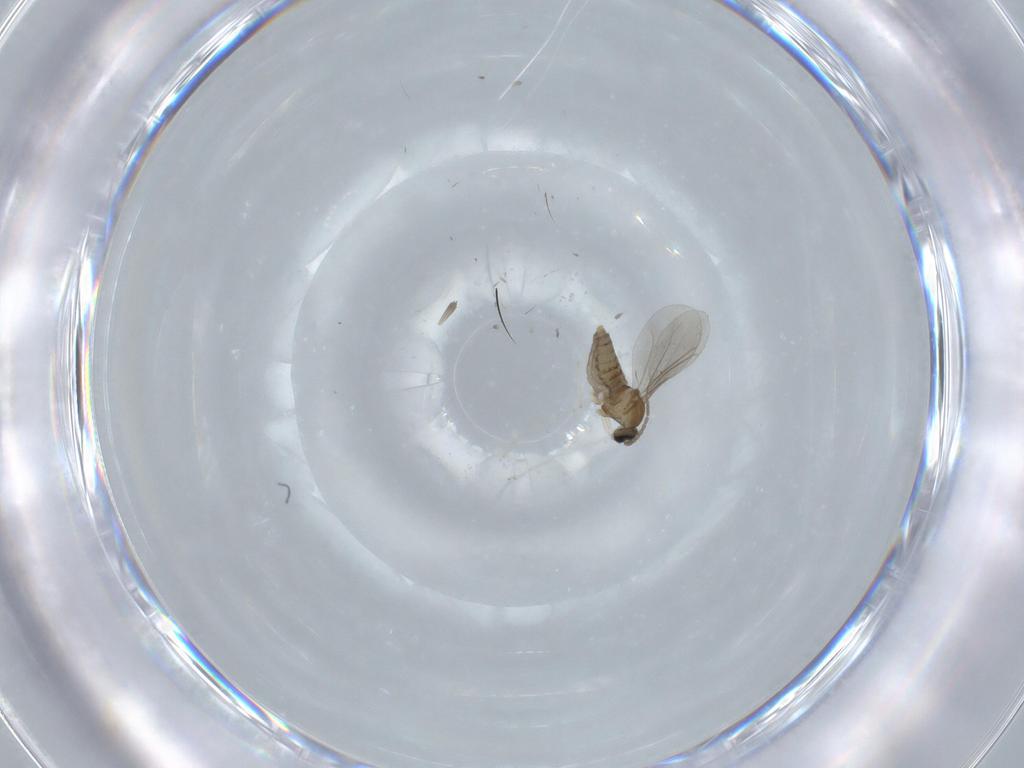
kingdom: Animalia
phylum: Arthropoda
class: Insecta
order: Diptera
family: Cecidomyiidae
